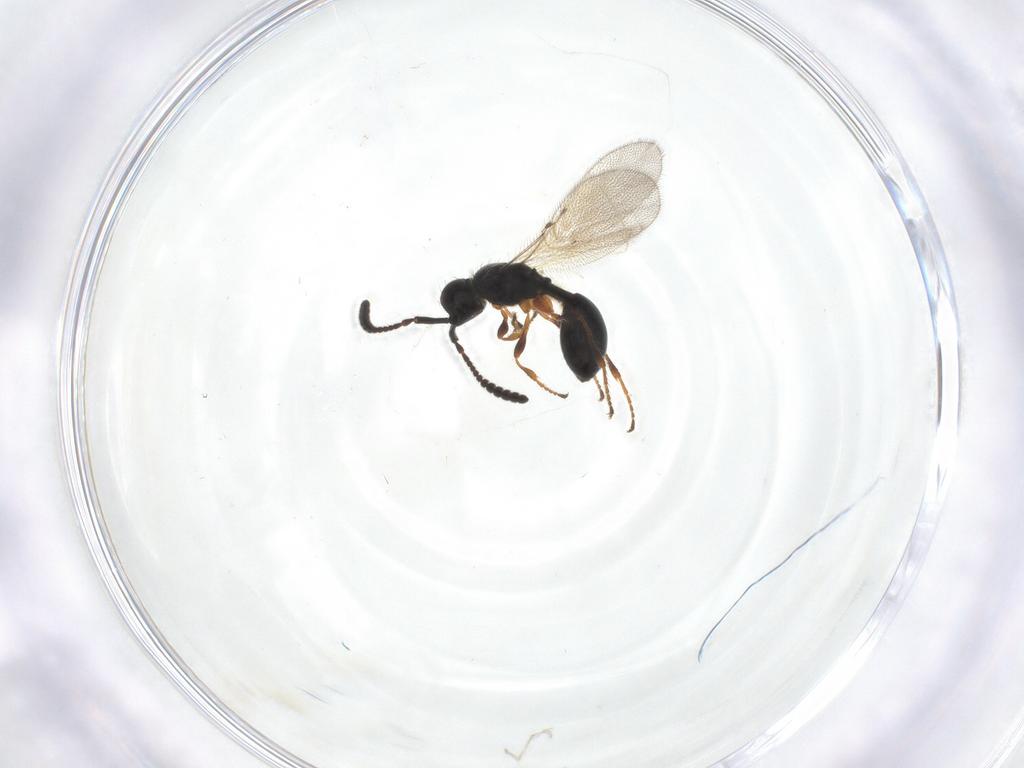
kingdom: Animalia
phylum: Arthropoda
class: Insecta
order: Hymenoptera
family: Diapriidae
